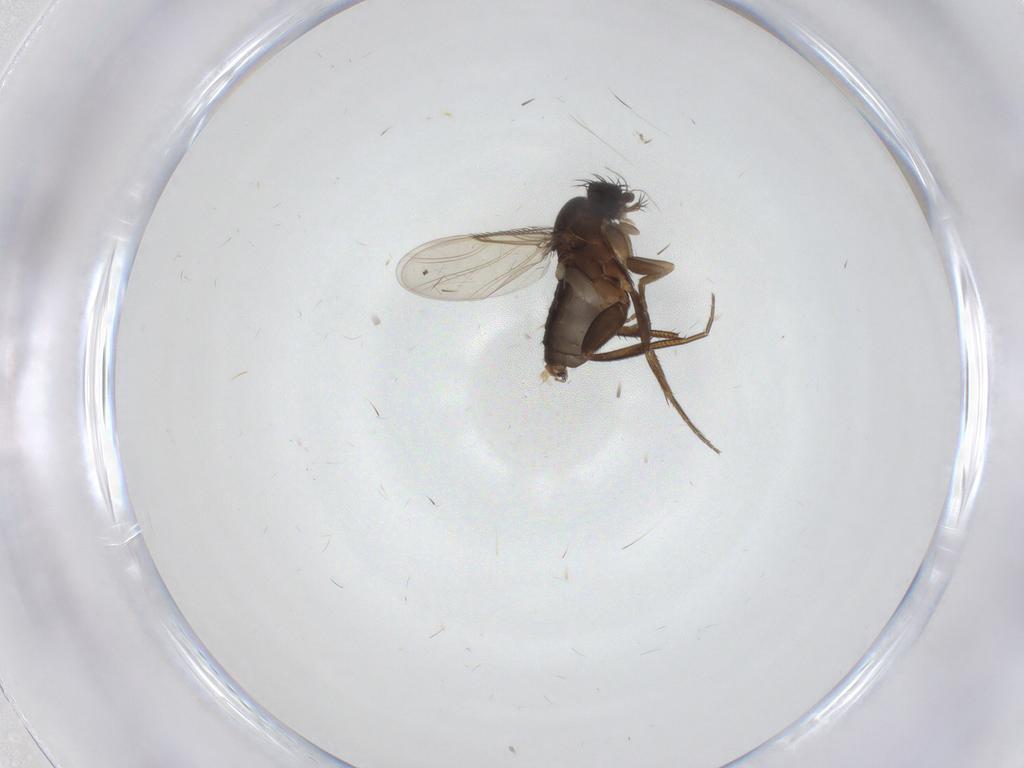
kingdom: Animalia
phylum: Arthropoda
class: Insecta
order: Diptera
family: Phoridae
